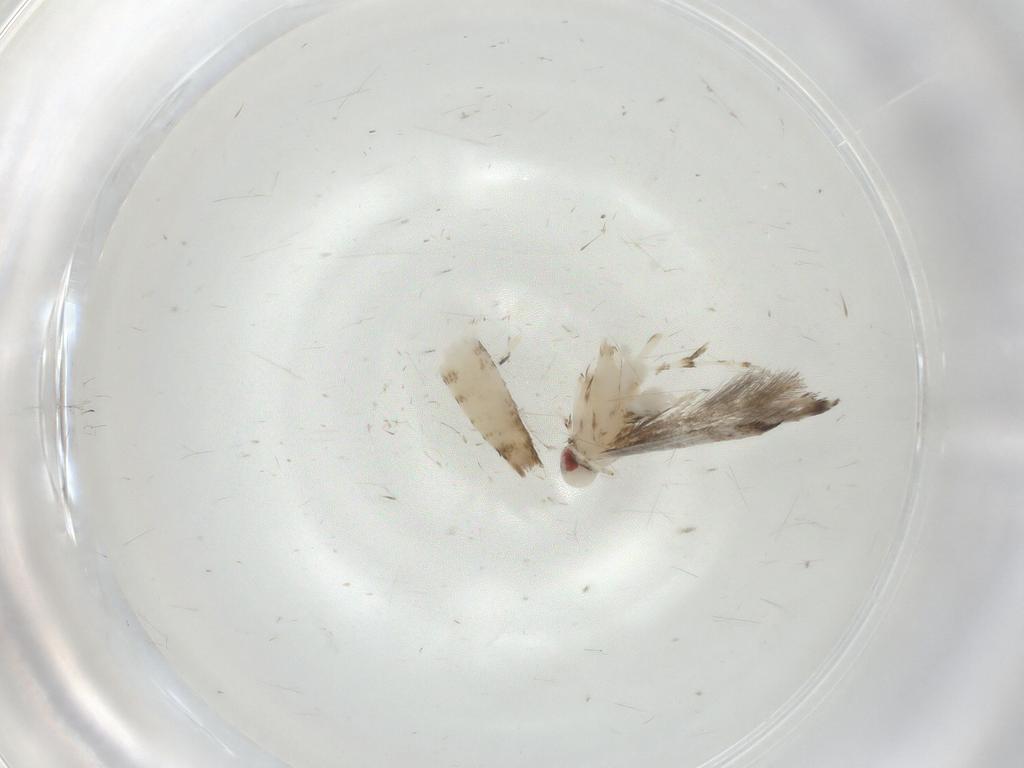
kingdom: Animalia
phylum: Arthropoda
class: Insecta
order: Lepidoptera
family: Gracillariidae
